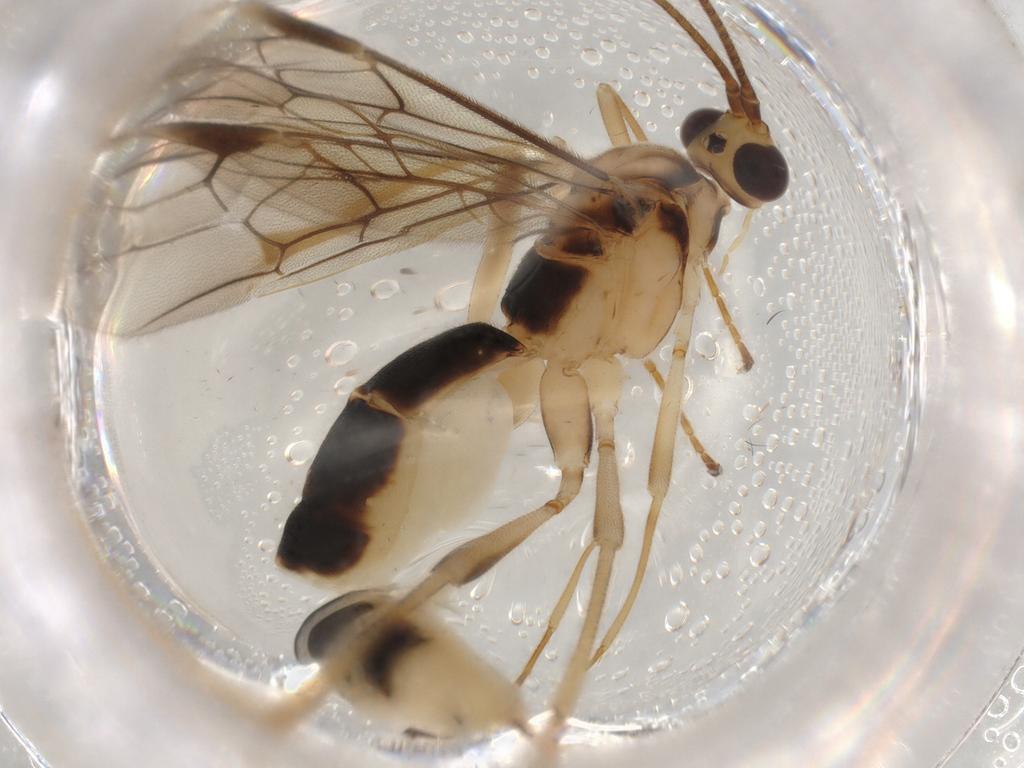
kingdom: Animalia
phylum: Arthropoda
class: Insecta
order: Hymenoptera
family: Braconidae
